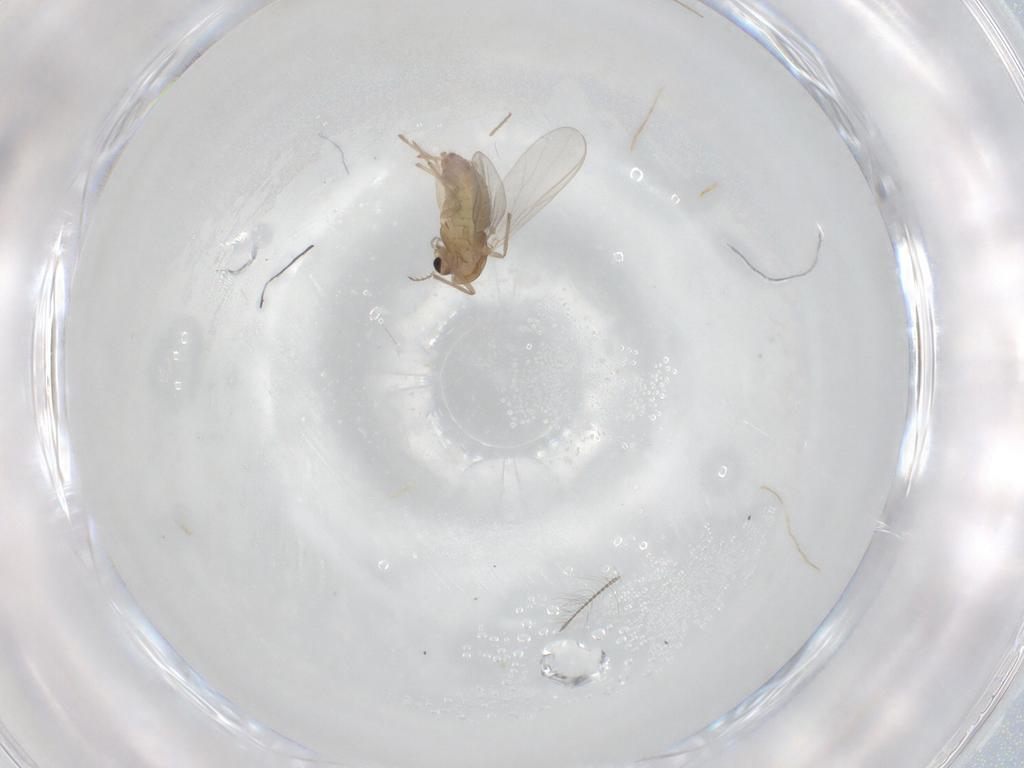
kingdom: Animalia
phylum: Arthropoda
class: Insecta
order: Diptera
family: Chironomidae
